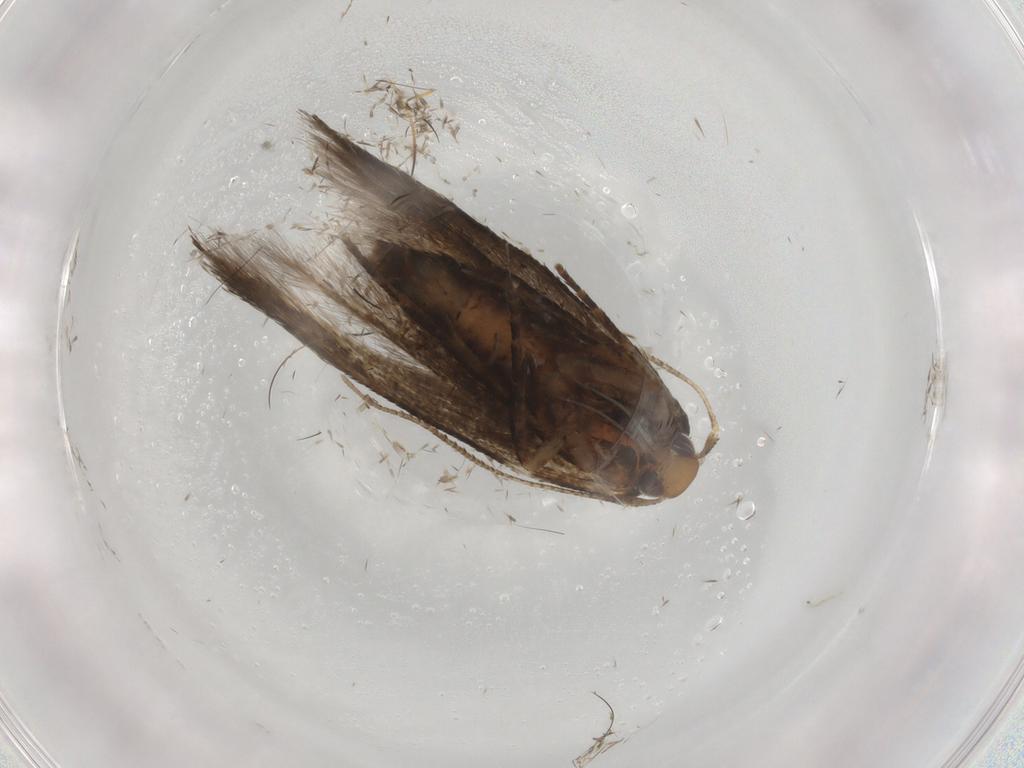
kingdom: Animalia
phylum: Arthropoda
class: Insecta
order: Lepidoptera
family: Cosmopterigidae
